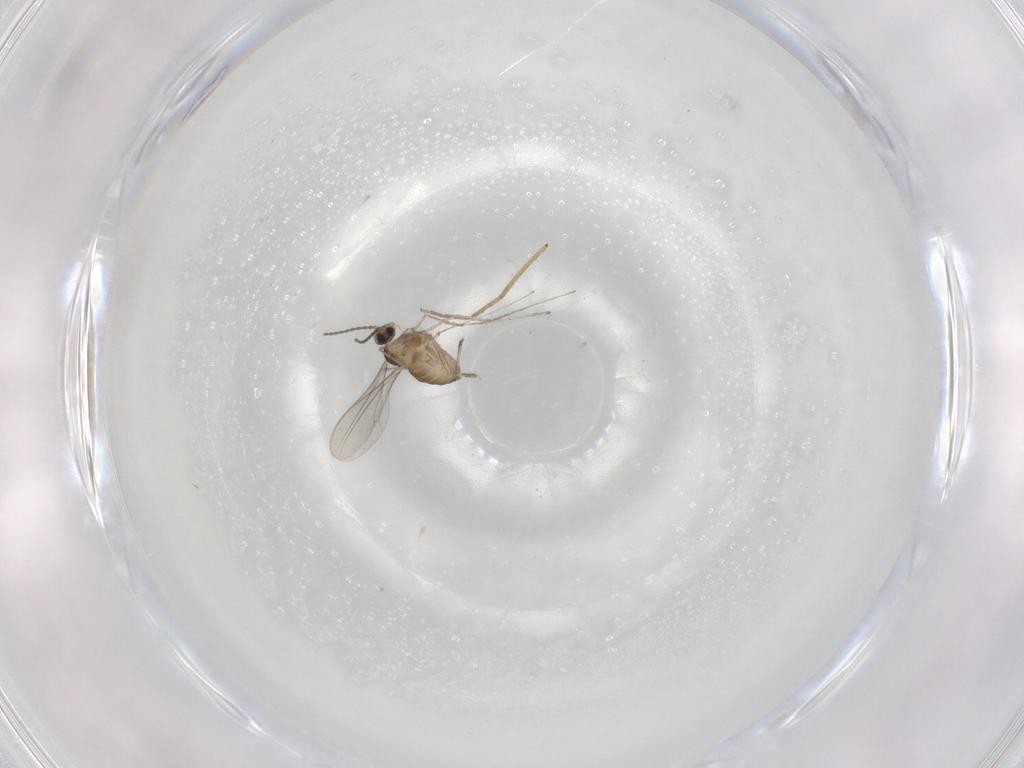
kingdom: Animalia
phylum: Arthropoda
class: Insecta
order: Diptera
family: Cecidomyiidae
